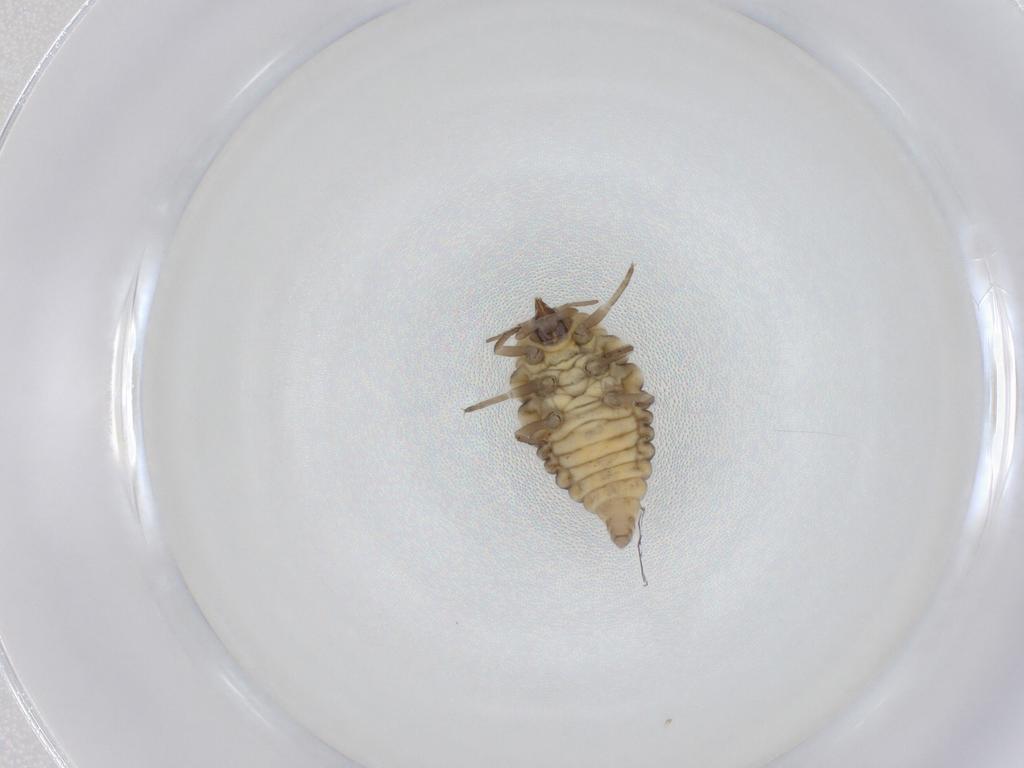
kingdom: Animalia
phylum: Arthropoda
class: Insecta
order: Neuroptera
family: Coniopterygidae
